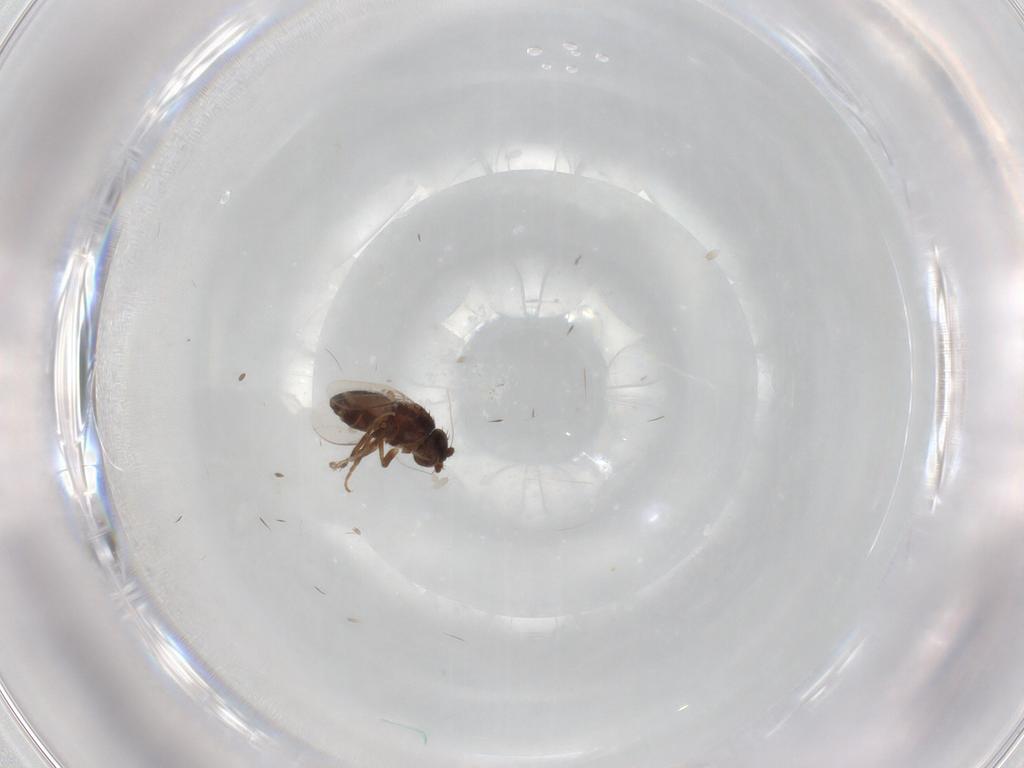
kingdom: Animalia
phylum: Arthropoda
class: Insecta
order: Diptera
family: Sphaeroceridae
